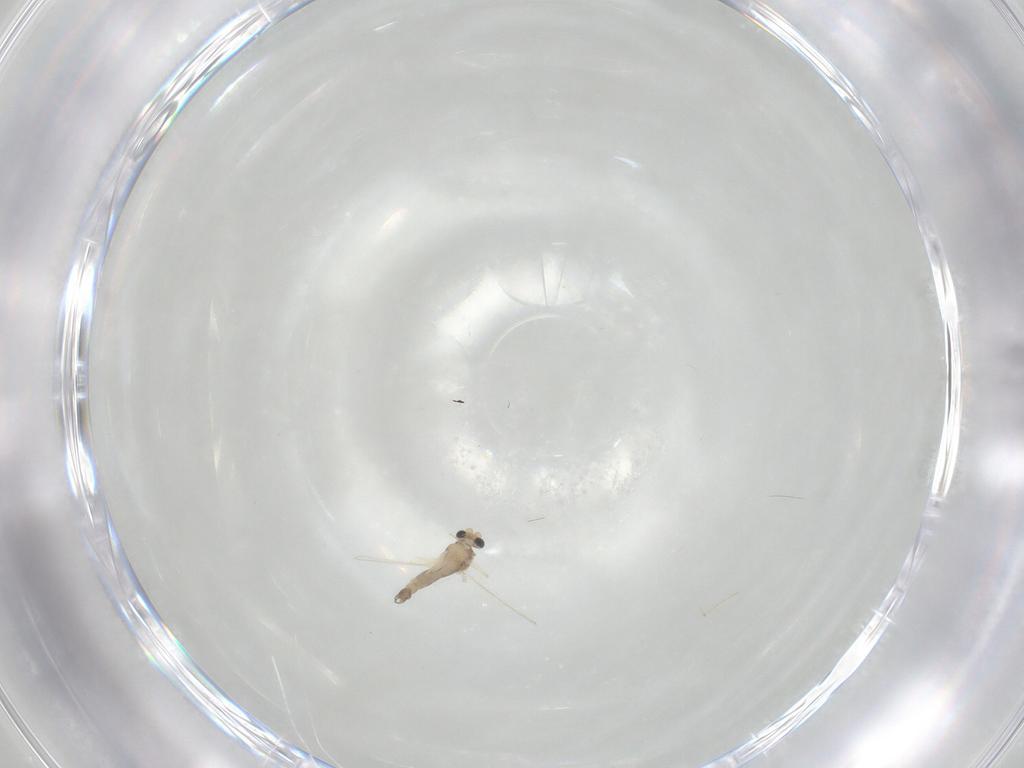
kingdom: Animalia
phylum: Arthropoda
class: Insecta
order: Diptera
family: Chironomidae
